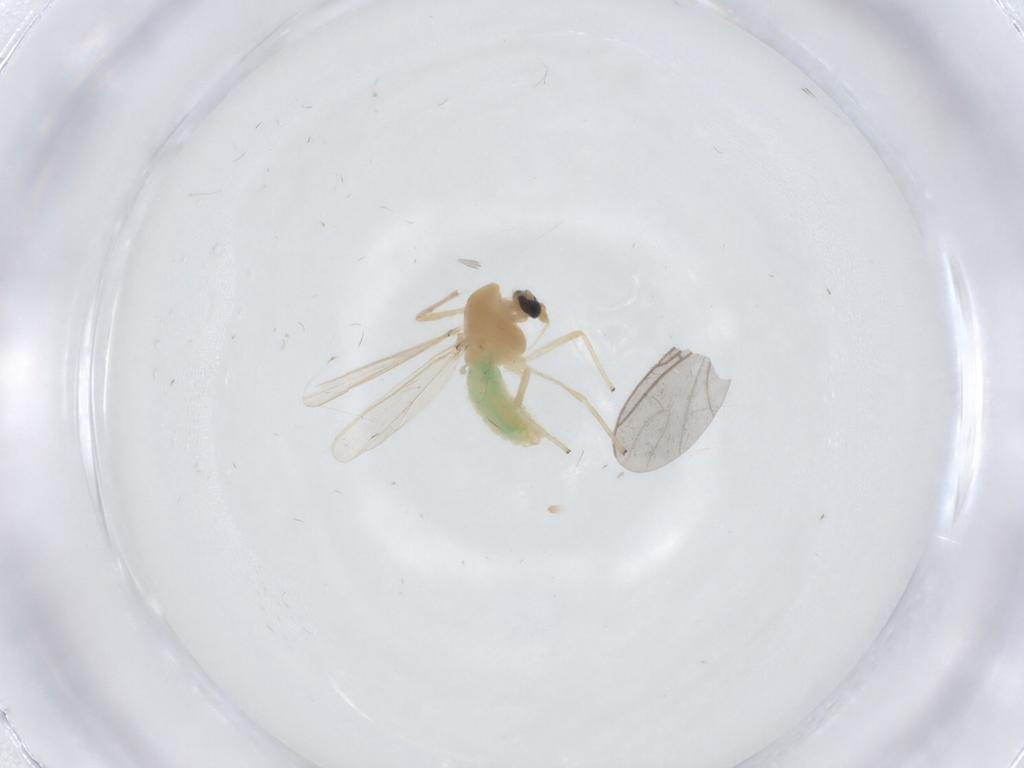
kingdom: Animalia
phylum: Arthropoda
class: Insecta
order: Diptera
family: Chironomidae
